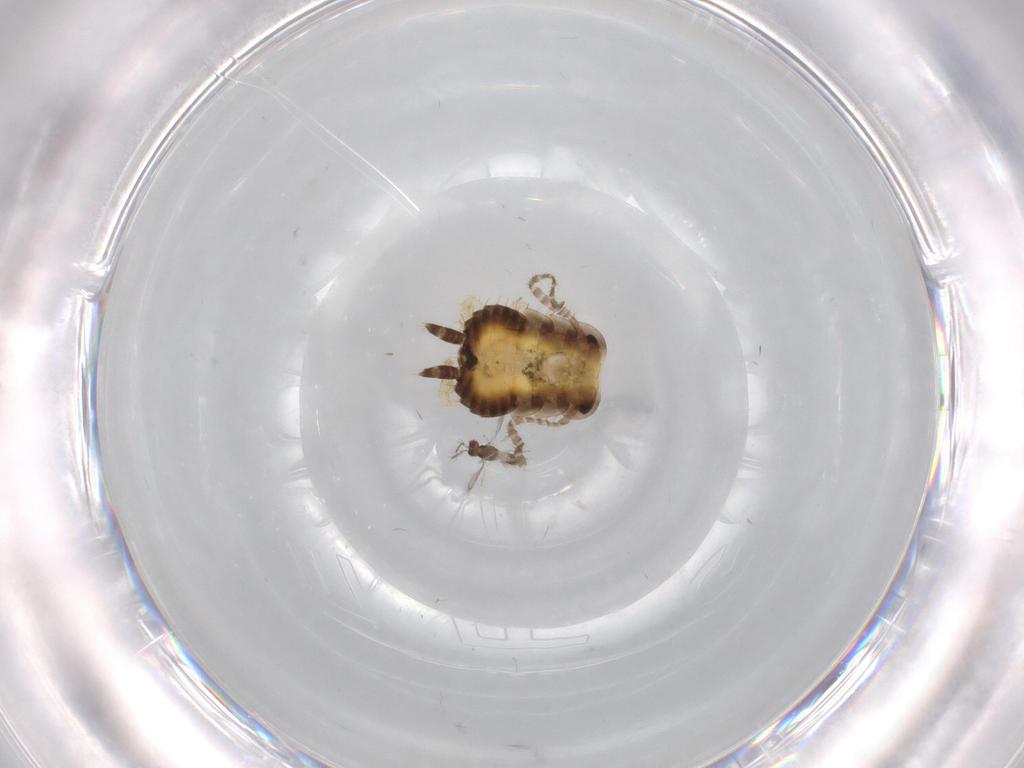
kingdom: Animalia
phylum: Arthropoda
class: Insecta
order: Blattodea
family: Ectobiidae
